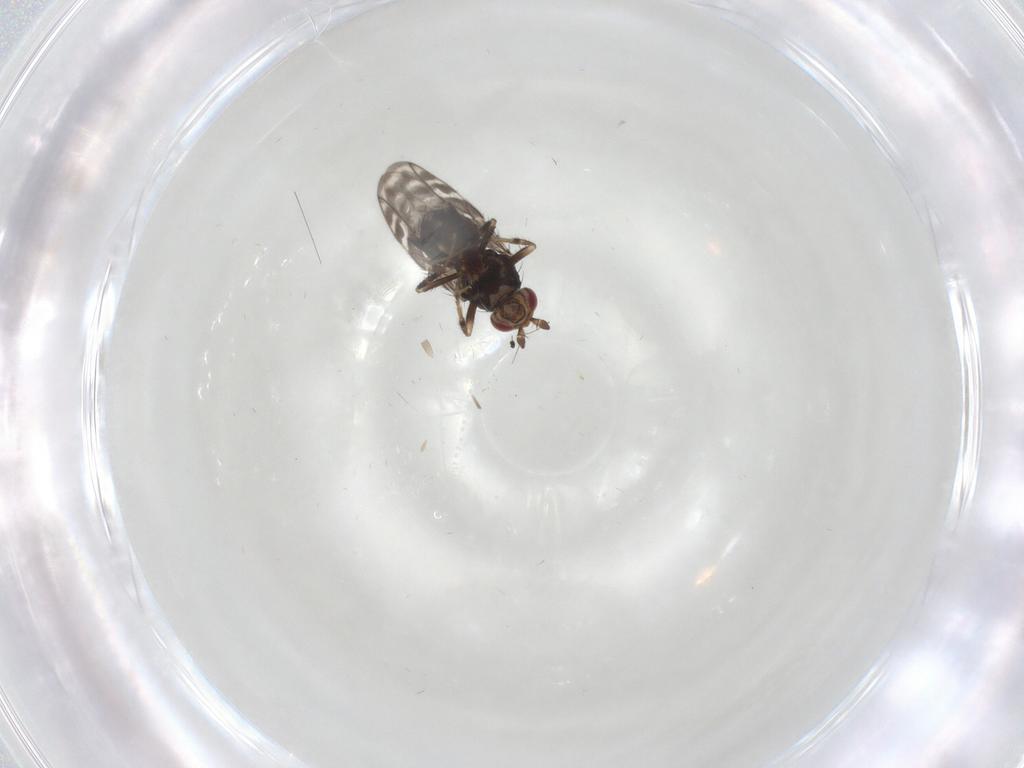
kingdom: Animalia
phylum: Arthropoda
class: Insecta
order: Diptera
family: Sphaeroceridae
